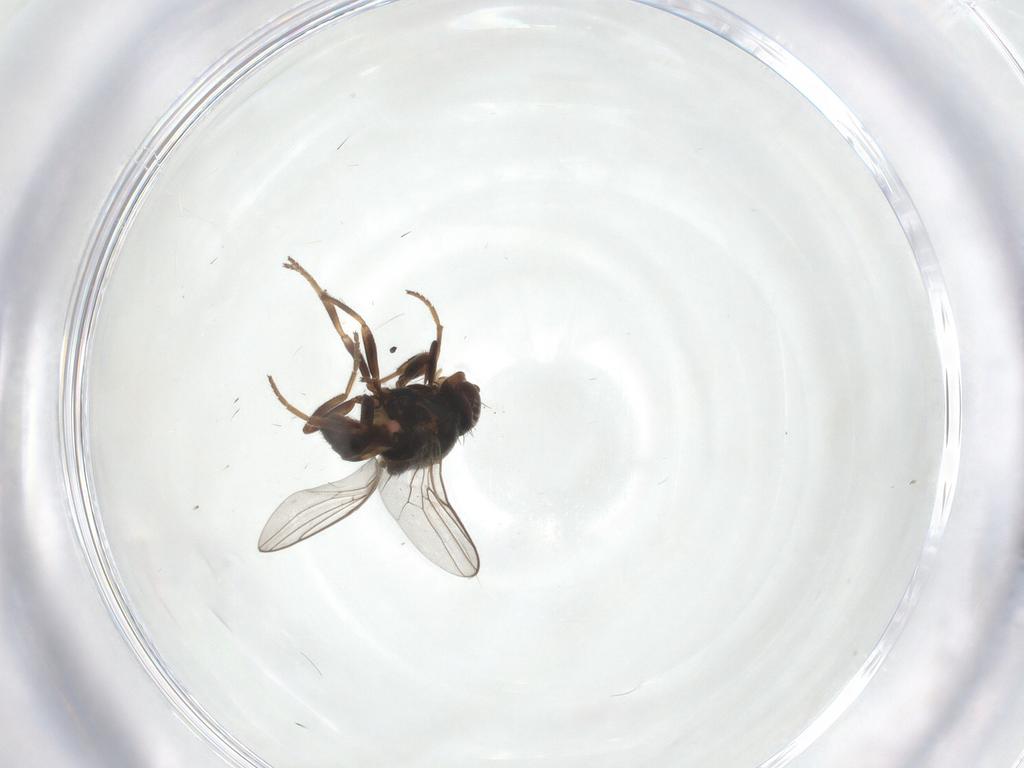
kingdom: Animalia
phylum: Arthropoda
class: Insecta
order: Diptera
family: Chloropidae
